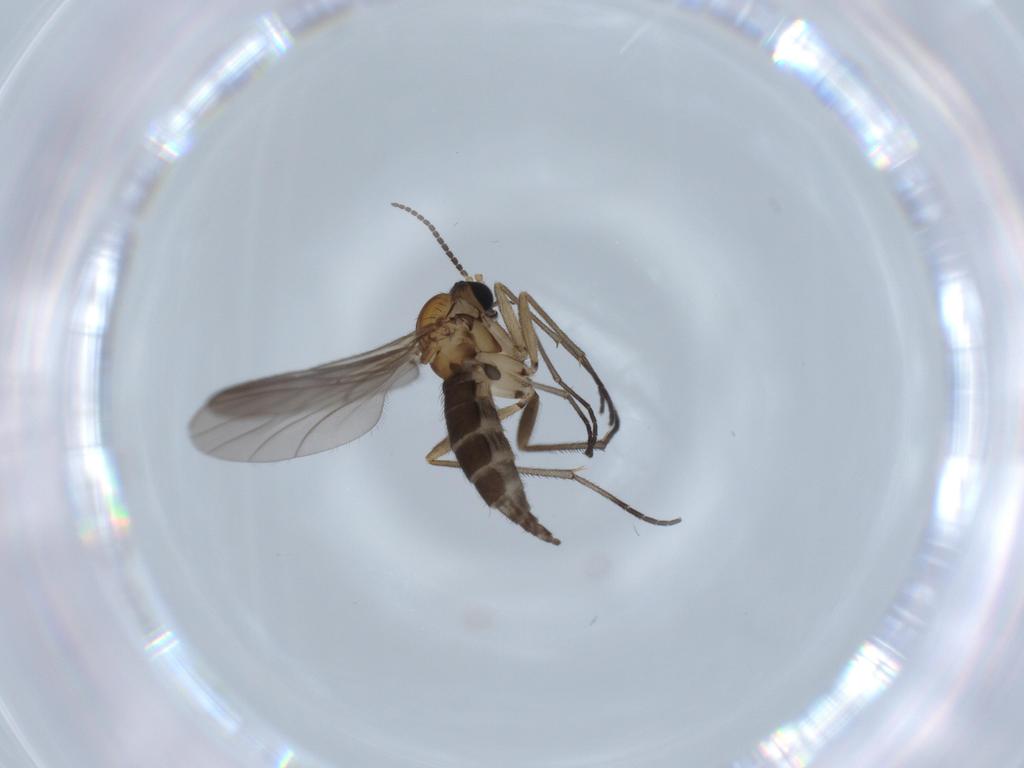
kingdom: Animalia
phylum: Arthropoda
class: Insecta
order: Diptera
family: Sciaridae
